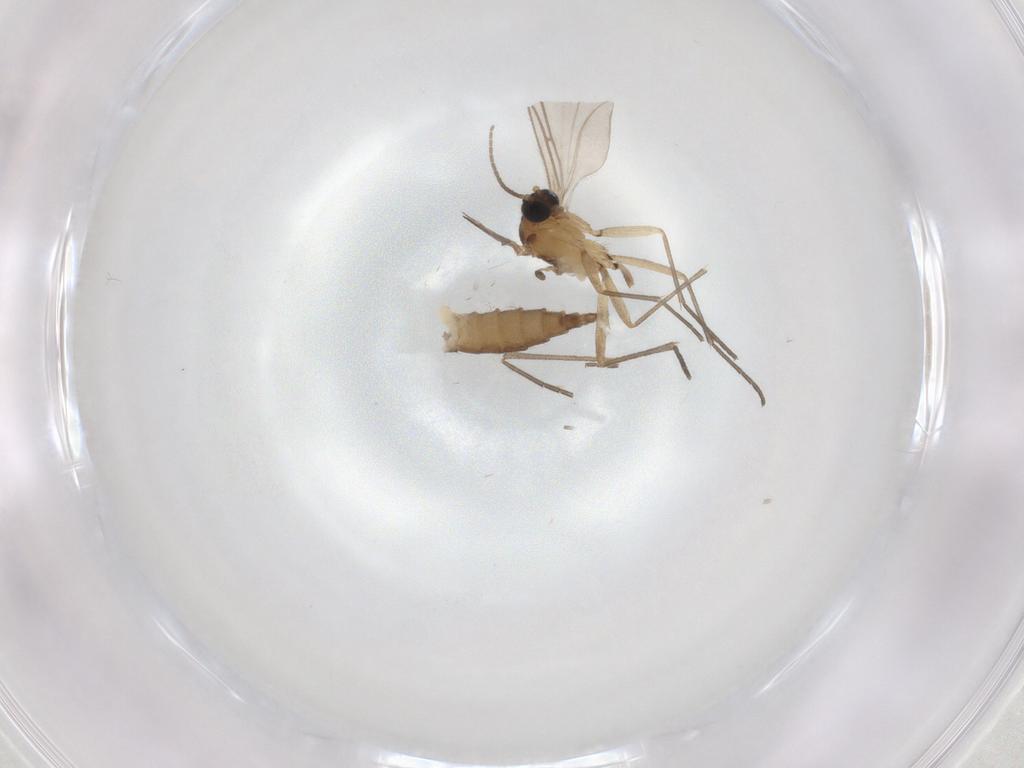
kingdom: Animalia
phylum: Arthropoda
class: Insecta
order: Diptera
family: Sciaridae
